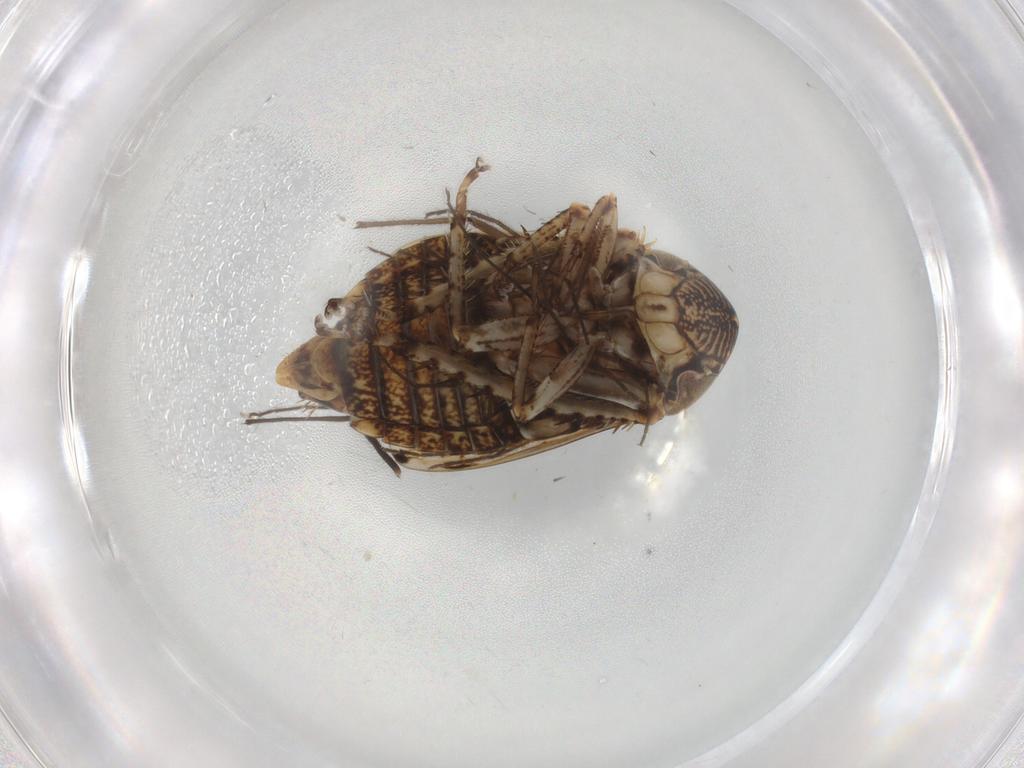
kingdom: Animalia
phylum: Arthropoda
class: Insecta
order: Hemiptera
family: Cicadellidae
